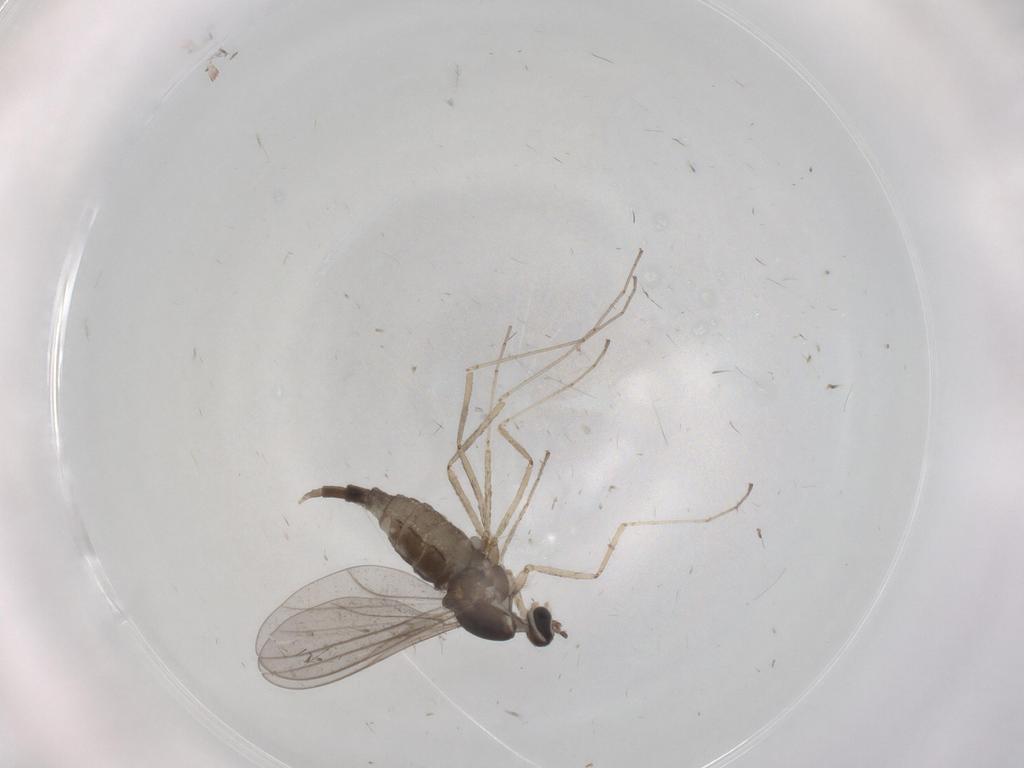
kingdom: Animalia
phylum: Arthropoda
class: Insecta
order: Diptera
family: Cecidomyiidae
